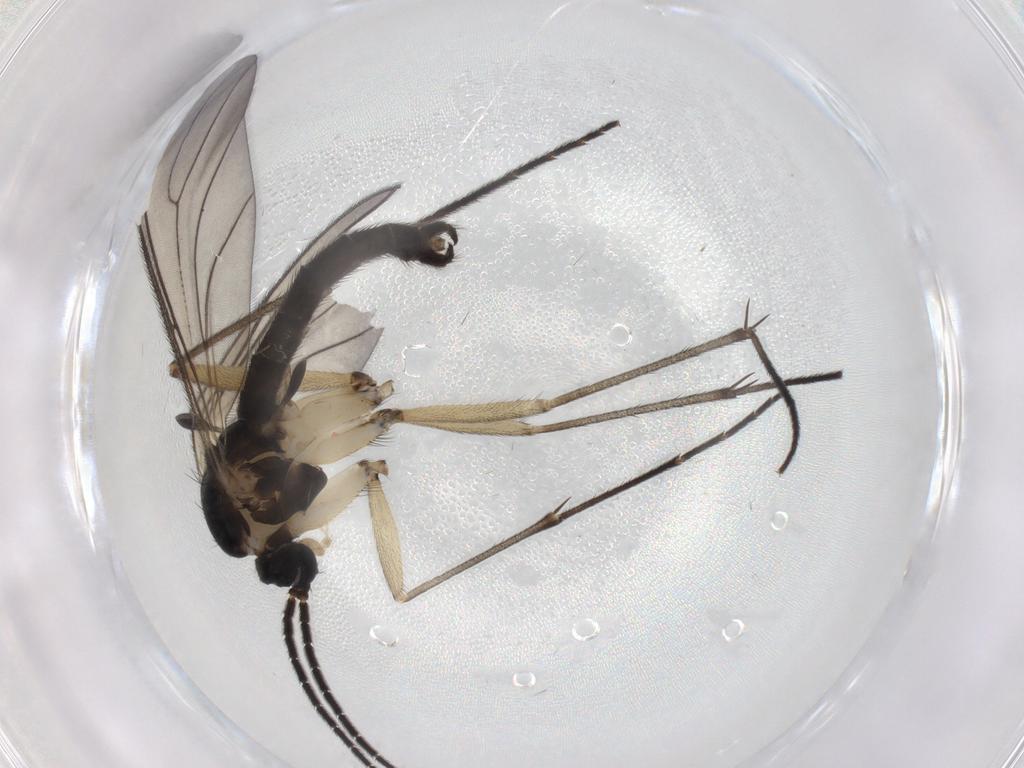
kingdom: Animalia
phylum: Arthropoda
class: Insecta
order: Diptera
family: Sciaridae
